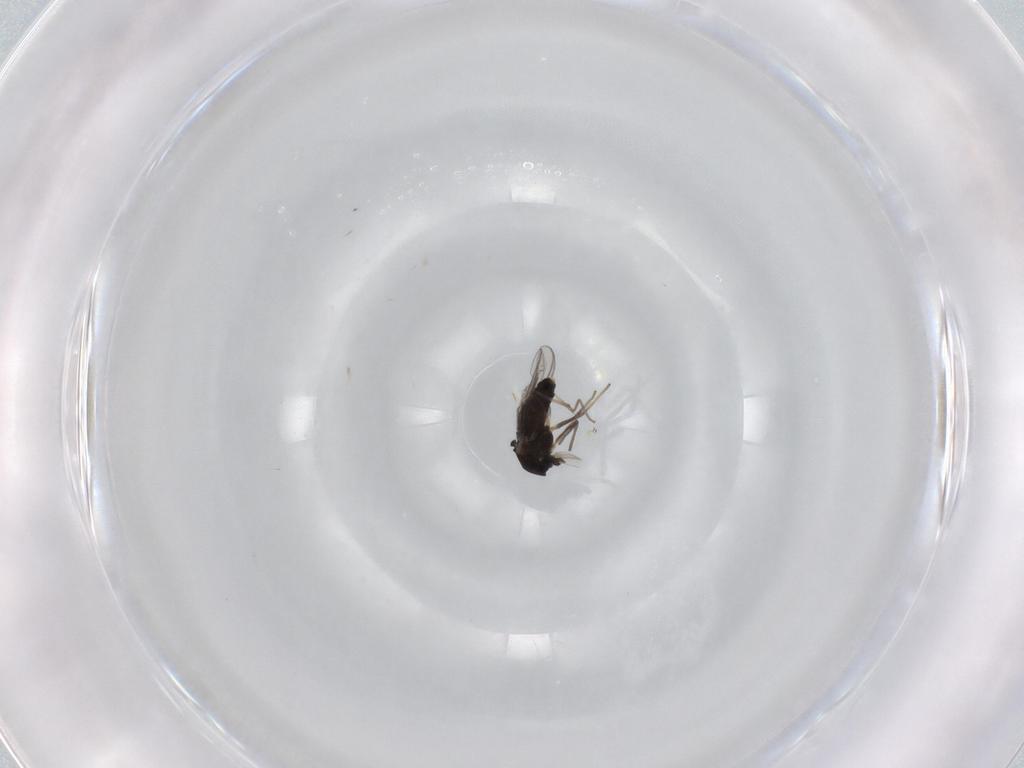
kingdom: Animalia
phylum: Arthropoda
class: Insecta
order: Diptera
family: Chironomidae
